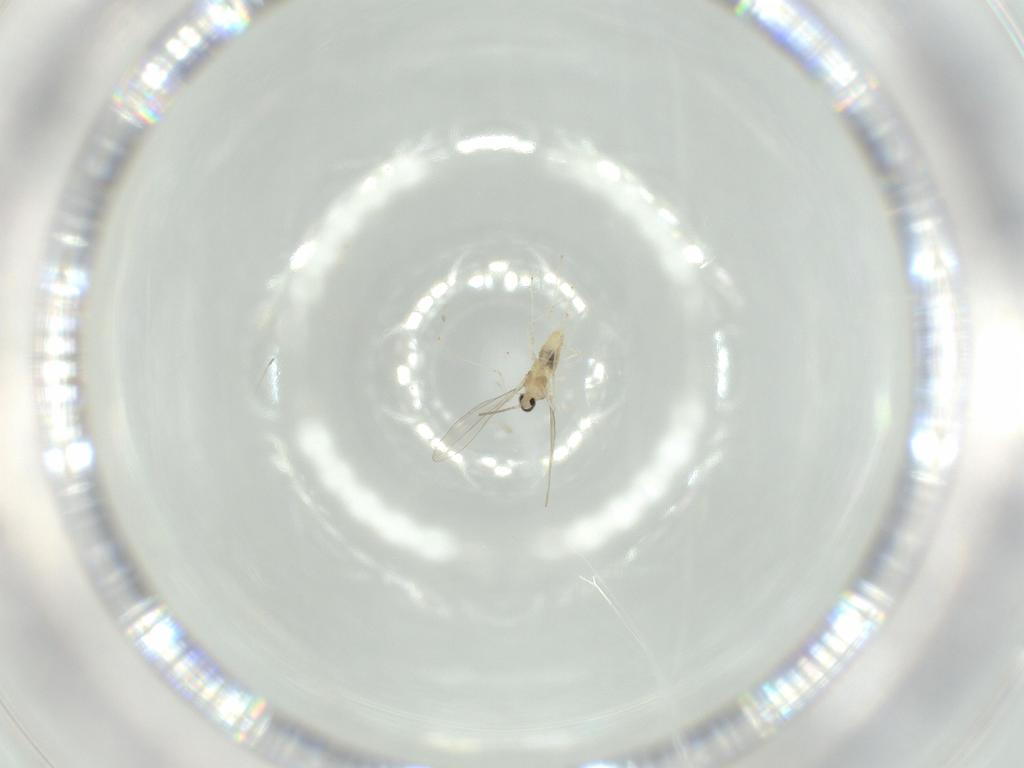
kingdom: Animalia
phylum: Arthropoda
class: Insecta
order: Diptera
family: Cecidomyiidae
